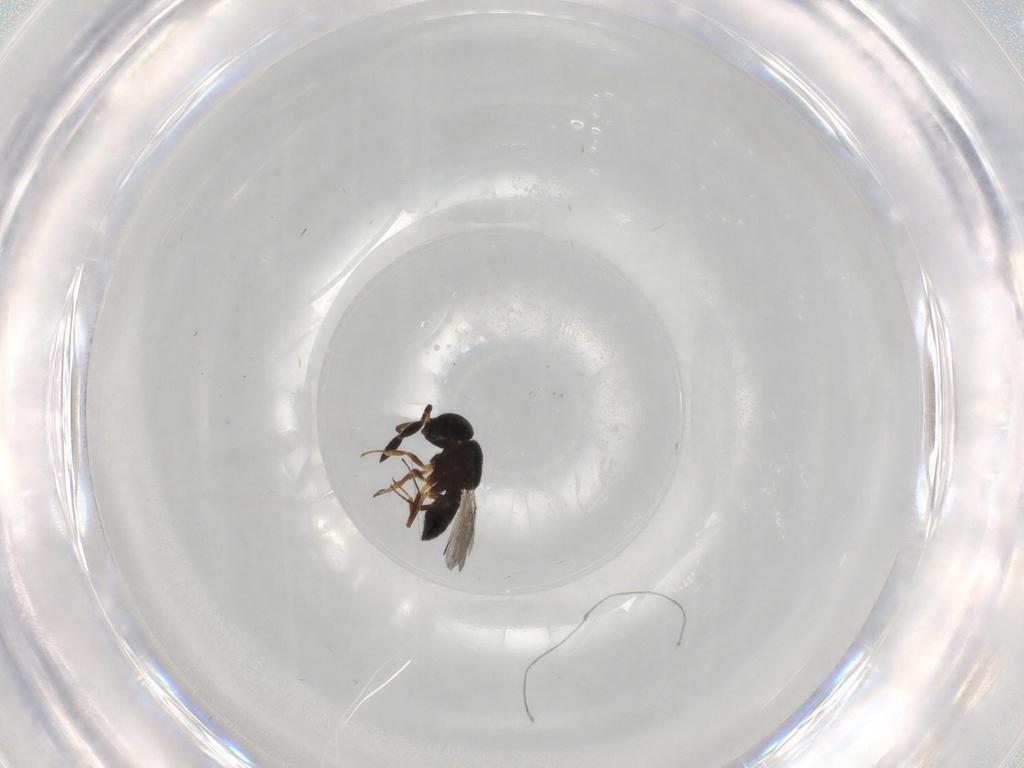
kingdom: Animalia
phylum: Arthropoda
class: Insecta
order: Hymenoptera
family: Scelionidae
